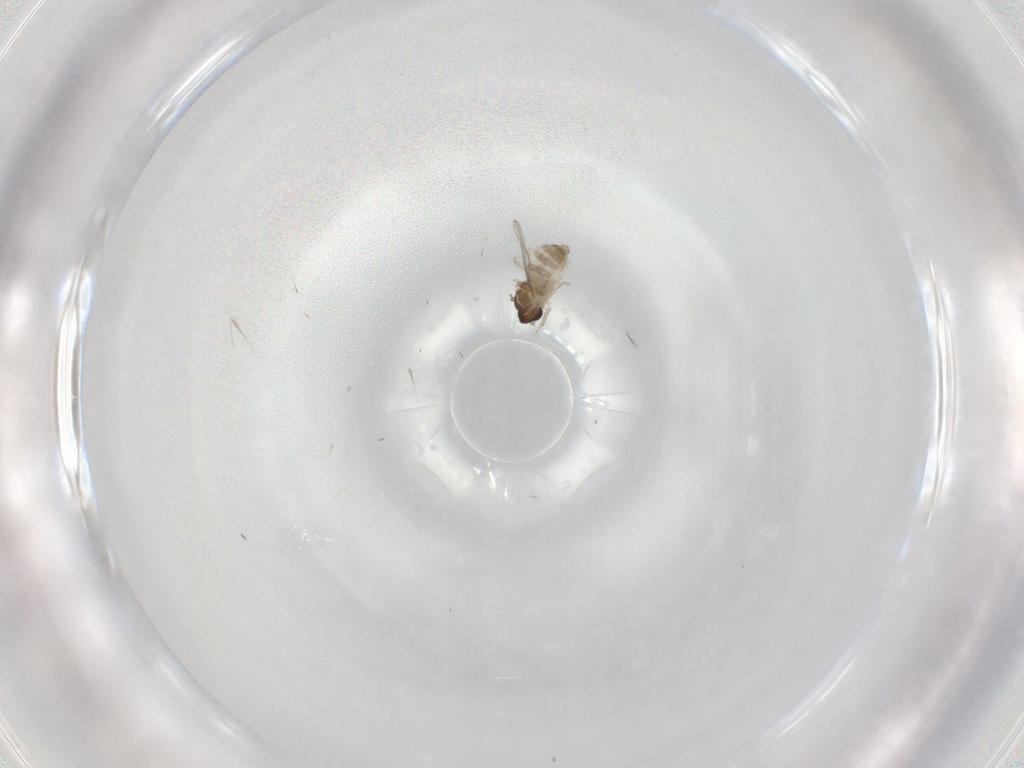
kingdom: Animalia
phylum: Arthropoda
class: Insecta
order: Diptera
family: Cecidomyiidae
